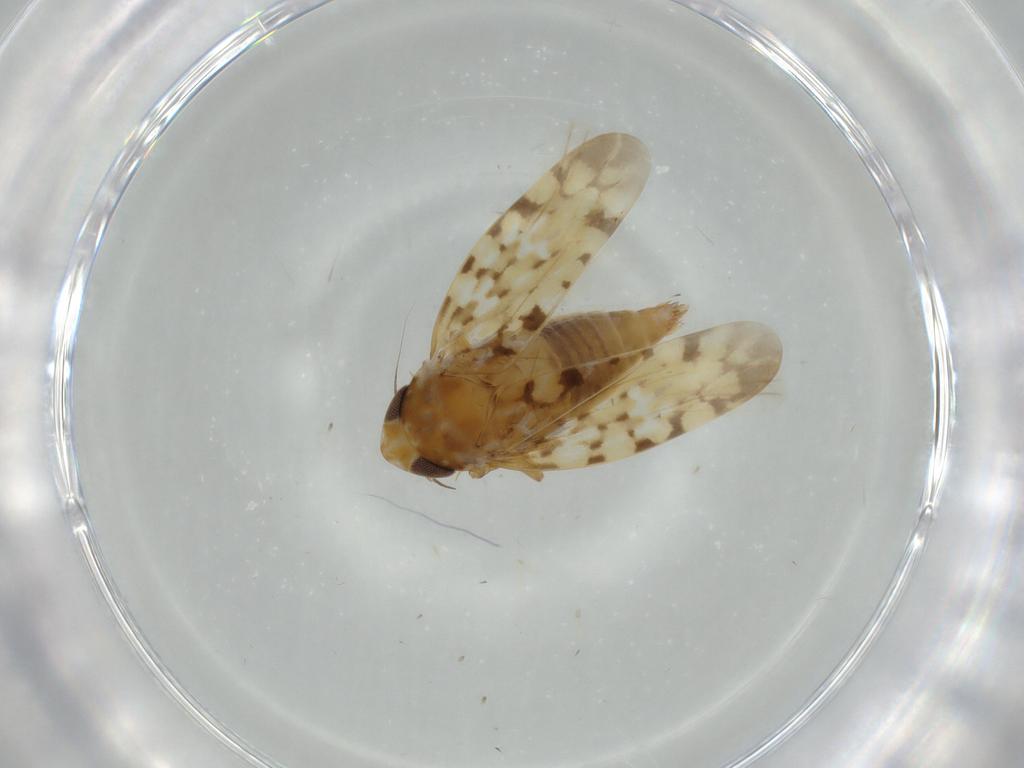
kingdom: Animalia
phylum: Arthropoda
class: Insecta
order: Hemiptera
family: Cicadellidae
